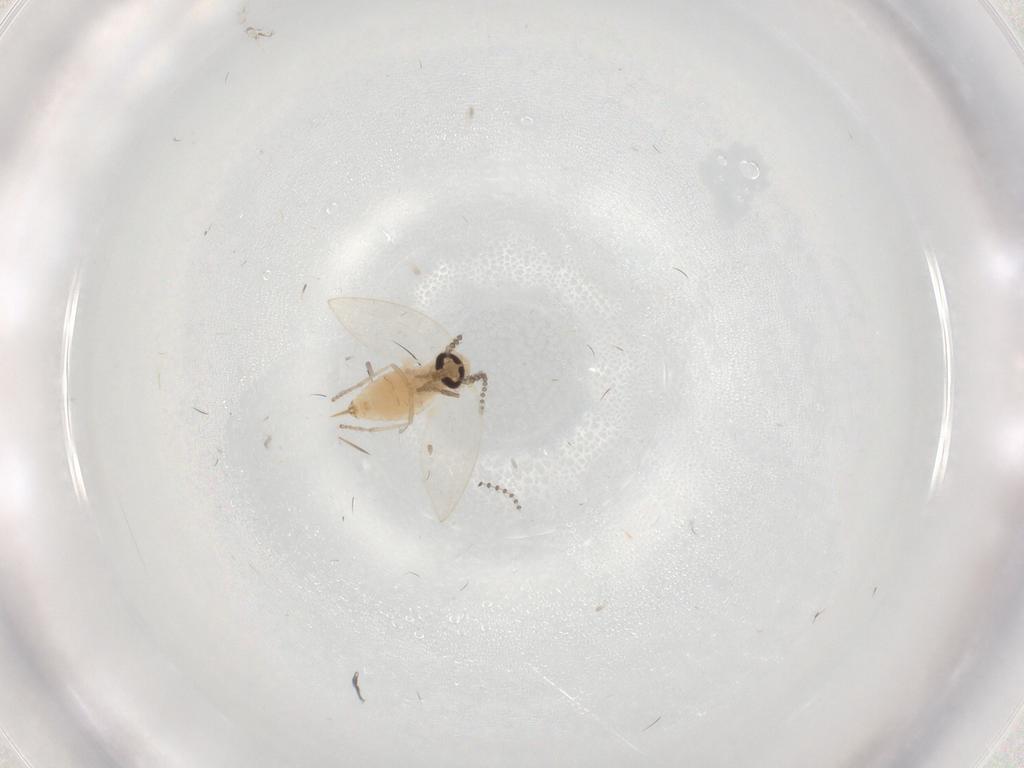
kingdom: Animalia
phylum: Arthropoda
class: Insecta
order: Diptera
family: Psychodidae
